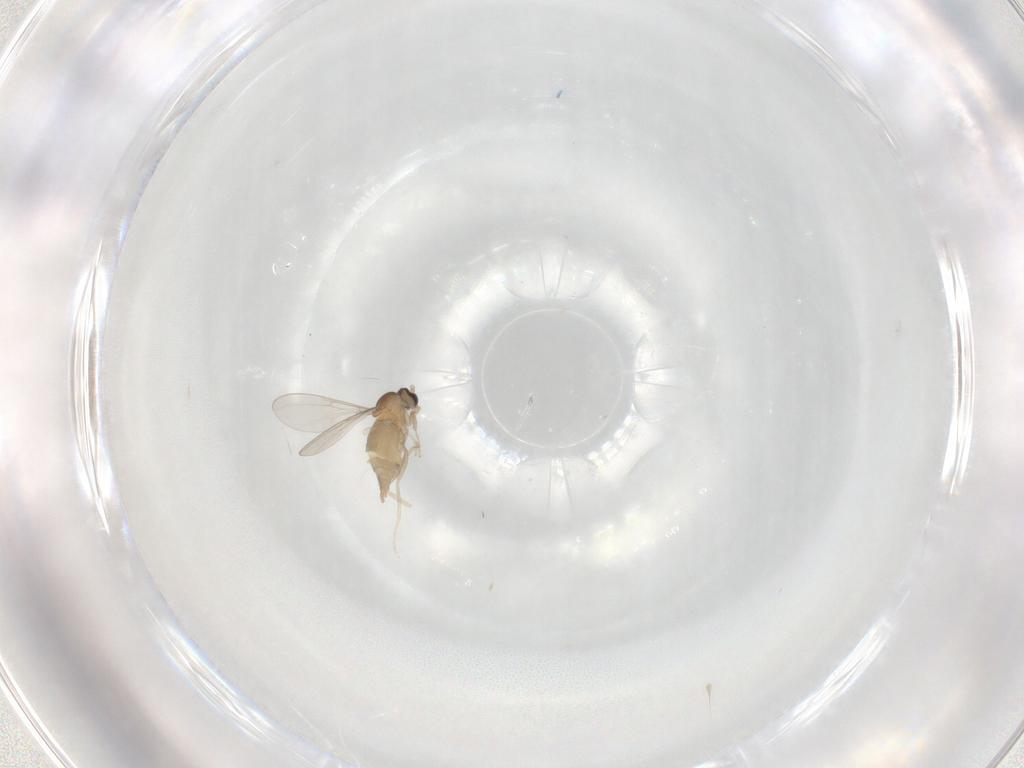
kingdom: Animalia
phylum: Arthropoda
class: Insecta
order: Diptera
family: Cecidomyiidae
